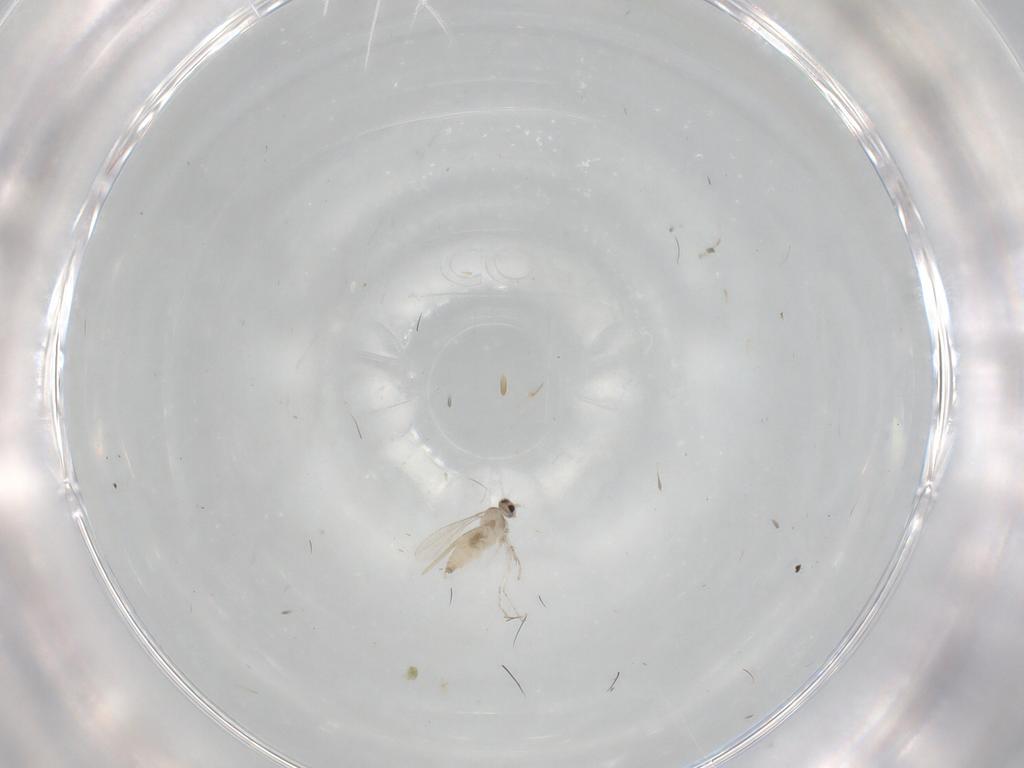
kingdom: Animalia
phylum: Arthropoda
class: Insecta
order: Diptera
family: Cecidomyiidae
